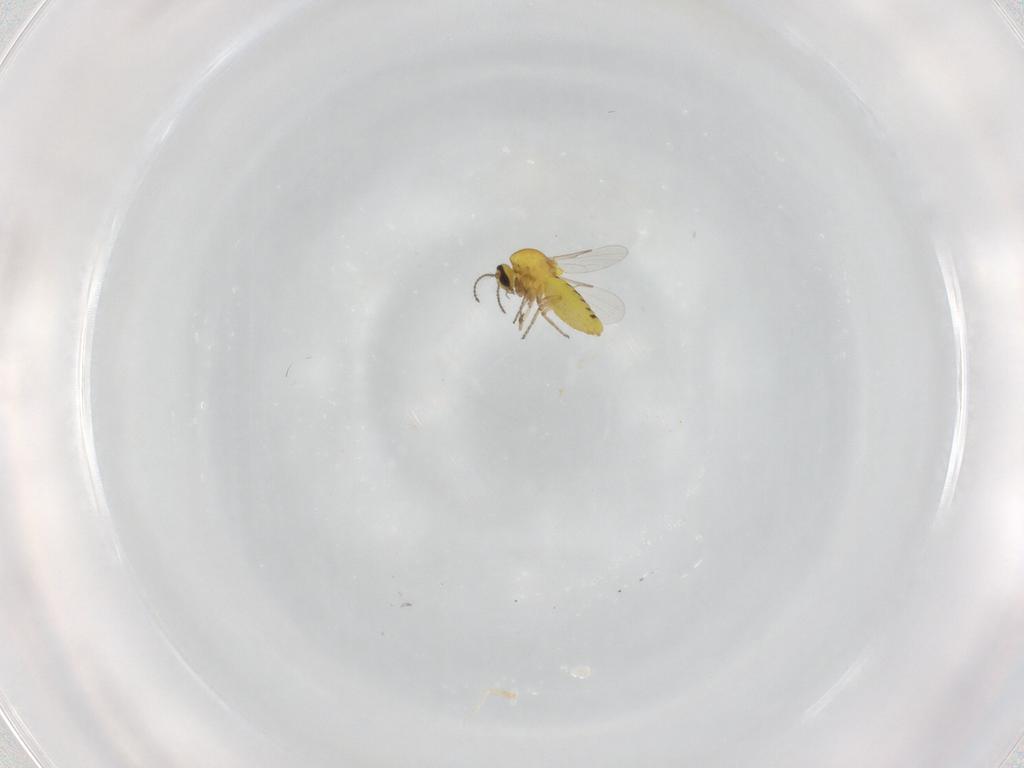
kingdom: Animalia
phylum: Arthropoda
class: Insecta
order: Diptera
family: Ceratopogonidae
